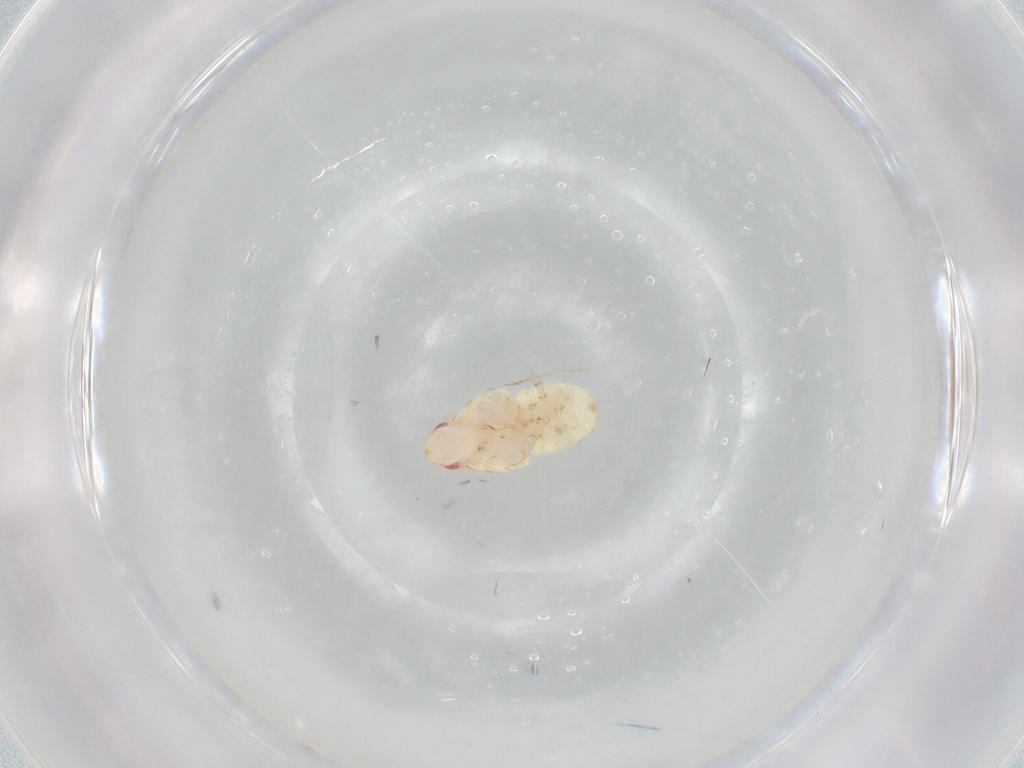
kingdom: Animalia
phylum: Arthropoda
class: Insecta
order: Hemiptera
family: Flatidae
